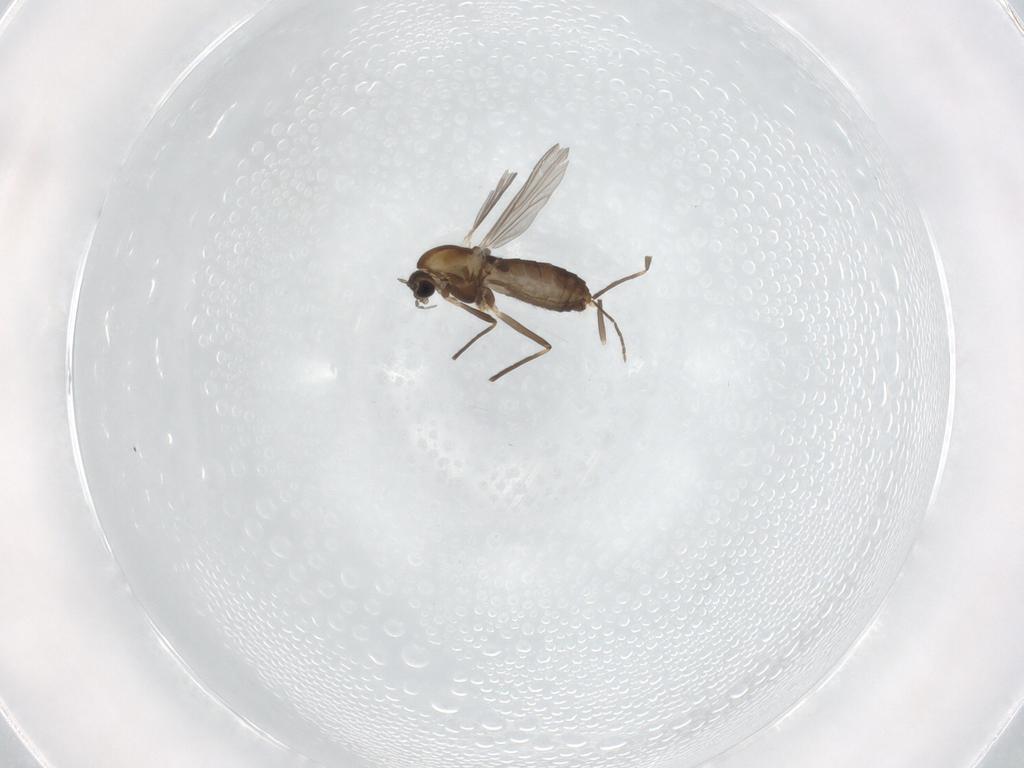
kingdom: Animalia
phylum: Arthropoda
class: Insecta
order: Diptera
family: Chironomidae
